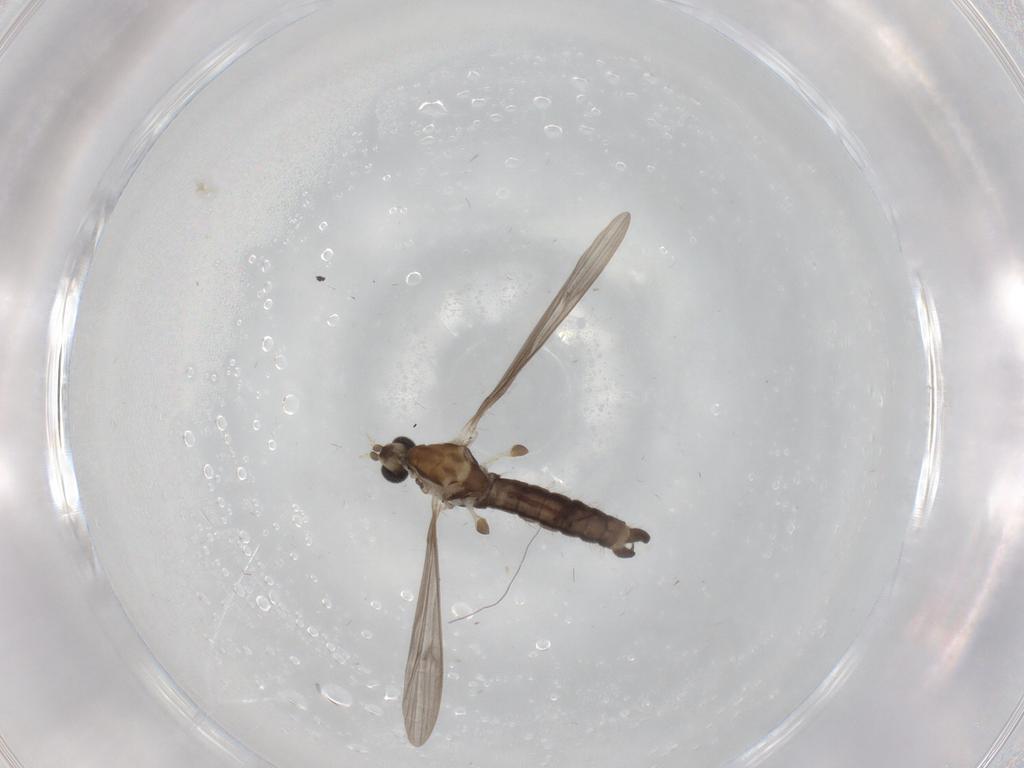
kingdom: Animalia
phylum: Arthropoda
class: Insecta
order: Diptera
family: Limoniidae
